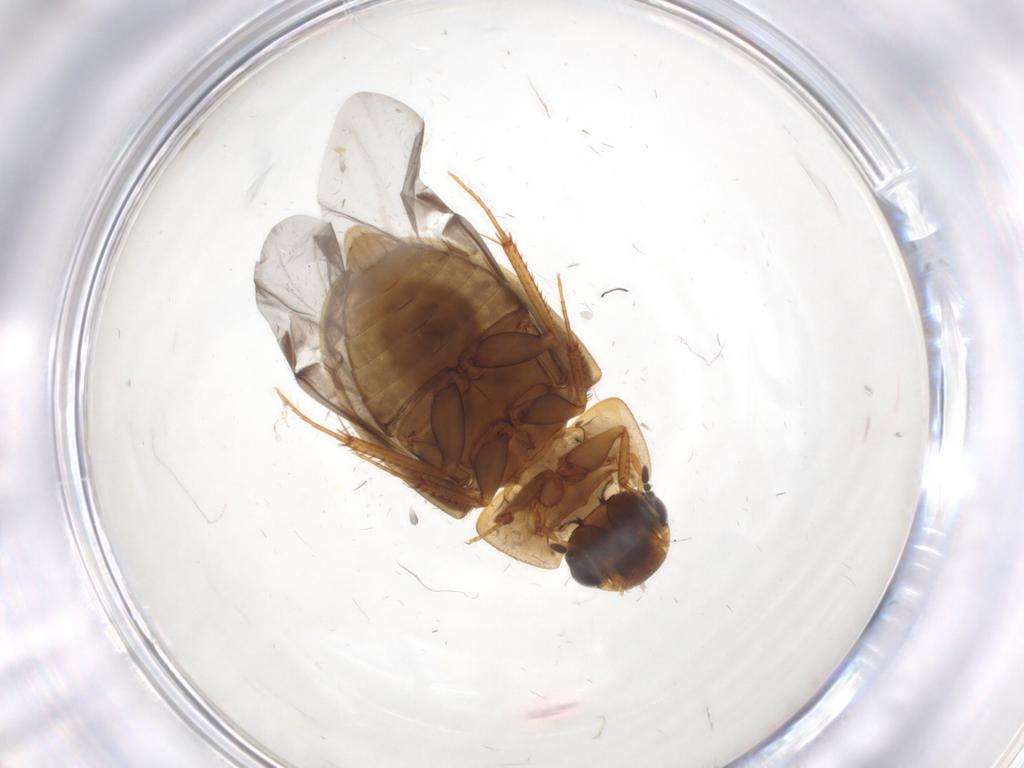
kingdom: Animalia
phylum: Arthropoda
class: Insecta
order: Coleoptera
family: Hydrophilidae
